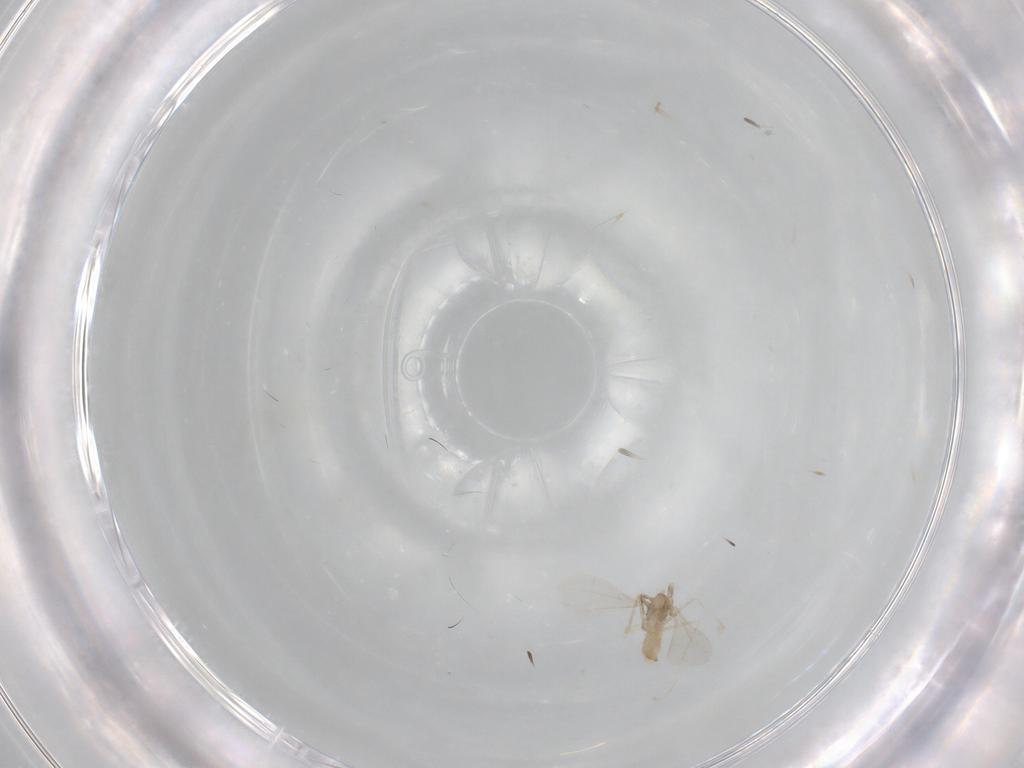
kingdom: Animalia
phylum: Arthropoda
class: Insecta
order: Diptera
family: Cecidomyiidae
